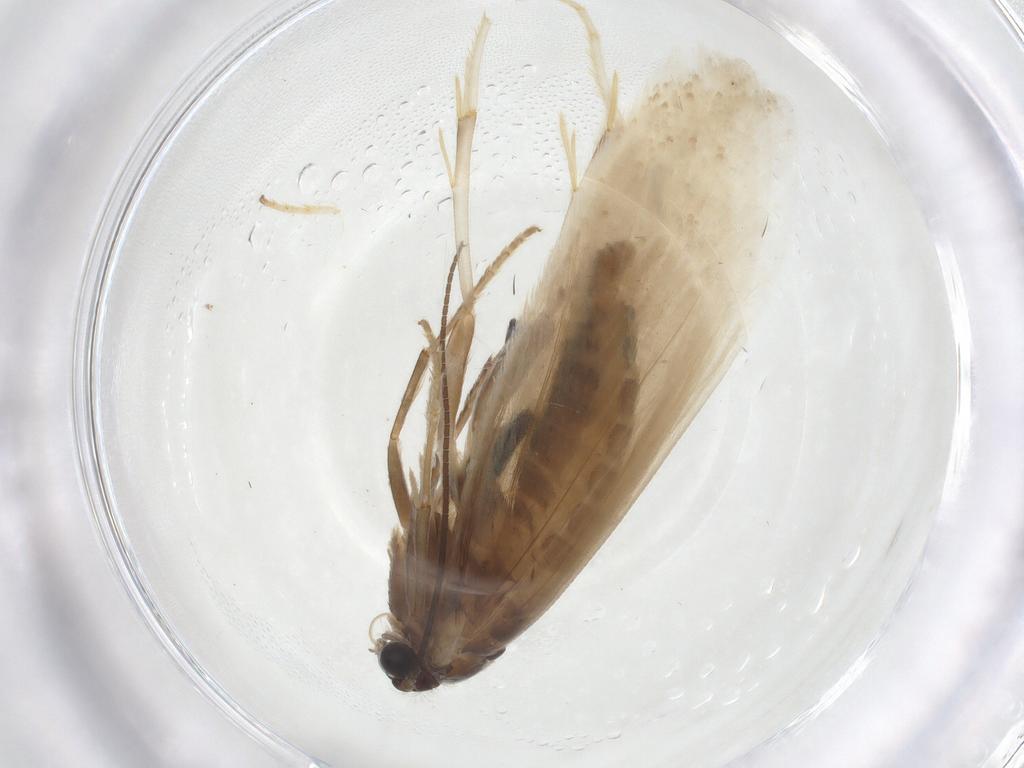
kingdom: Animalia
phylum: Arthropoda
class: Insecta
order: Lepidoptera
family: Tridentaformidae
